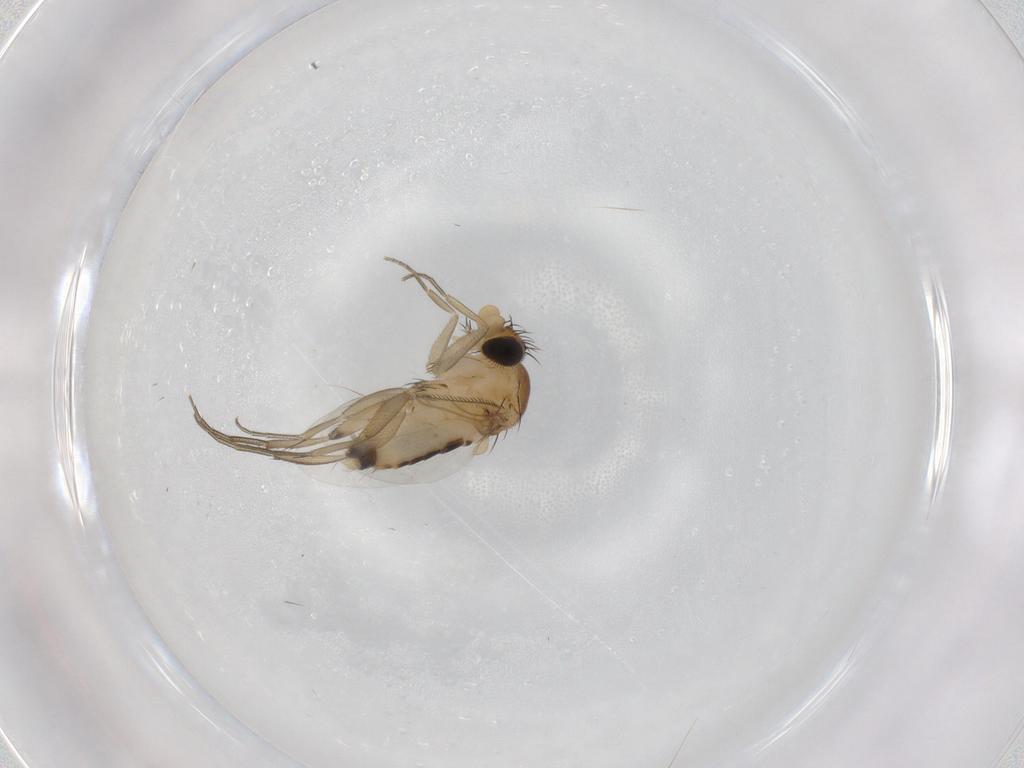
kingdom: Animalia
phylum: Arthropoda
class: Insecta
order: Diptera
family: Phoridae
